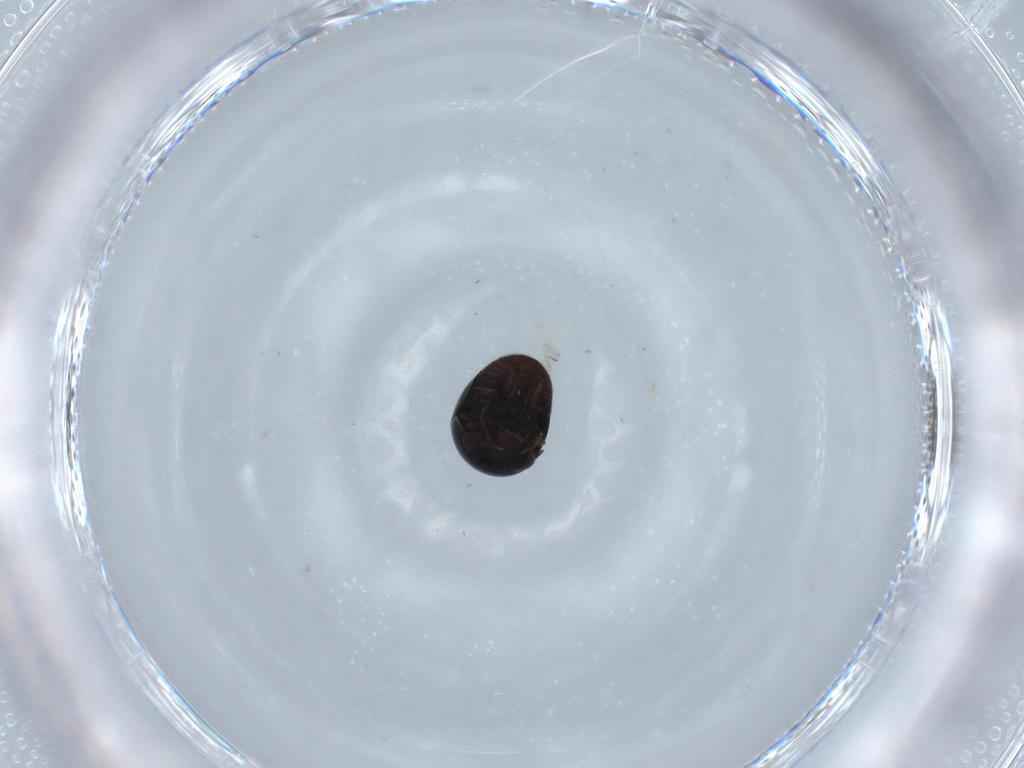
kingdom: Animalia
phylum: Arthropoda
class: Insecta
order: Coleoptera
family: Cybocephalidae
